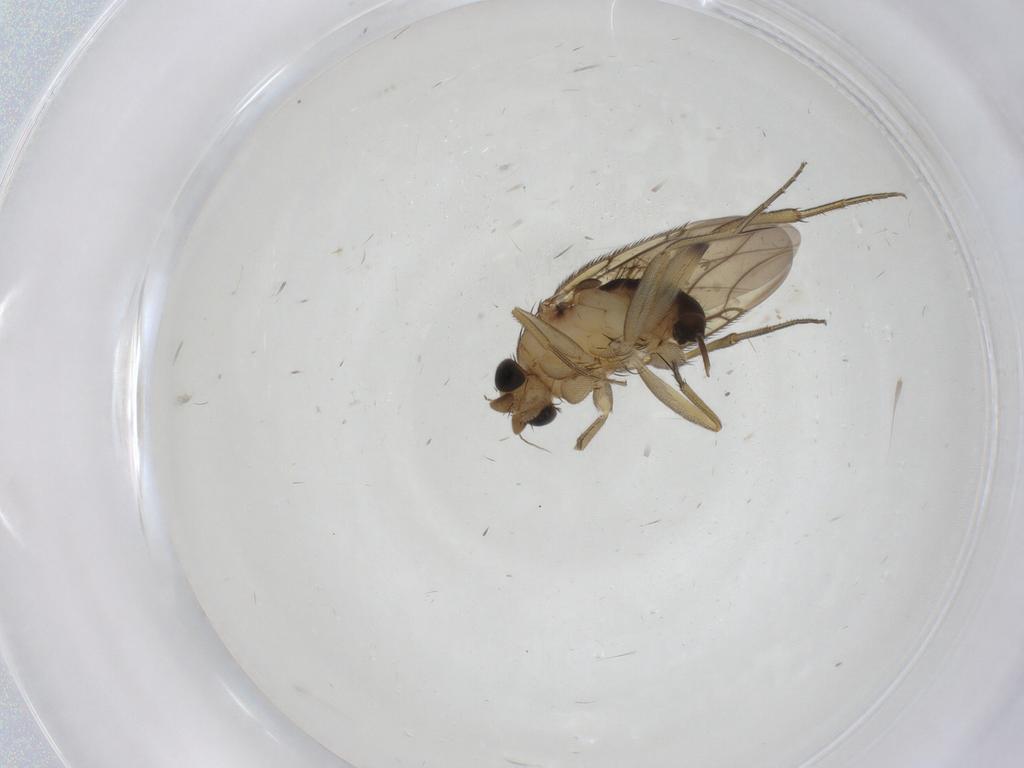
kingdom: Animalia
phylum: Arthropoda
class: Insecta
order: Diptera
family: Phoridae
